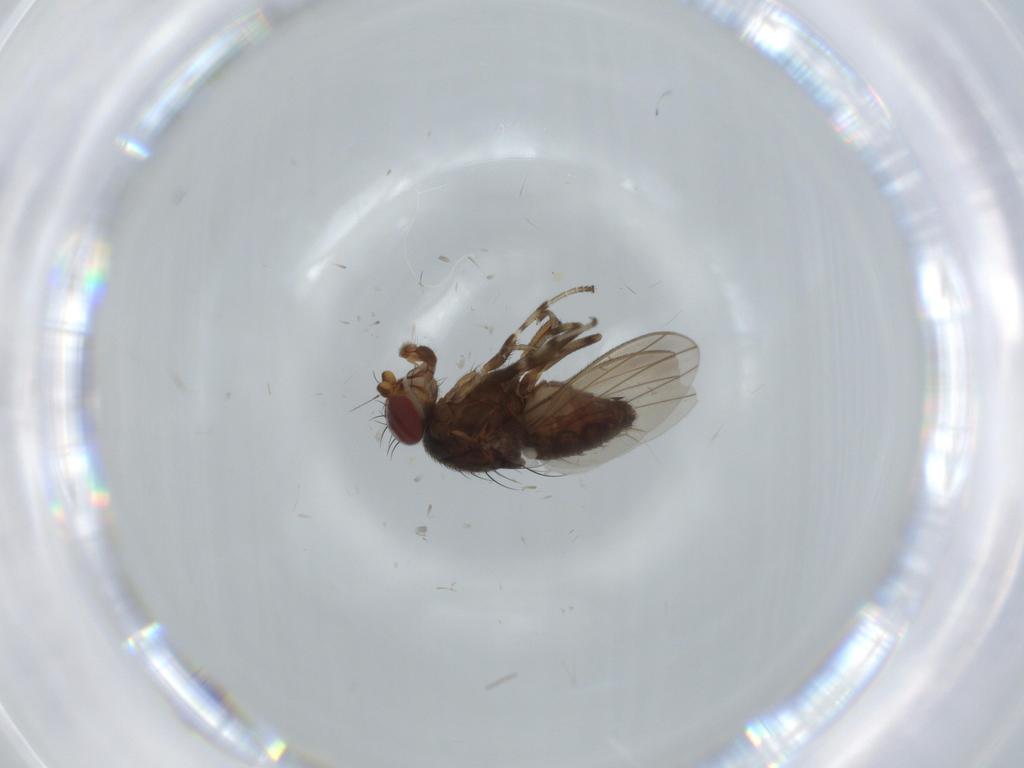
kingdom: Animalia
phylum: Arthropoda
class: Insecta
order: Diptera
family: Heleomyzidae
